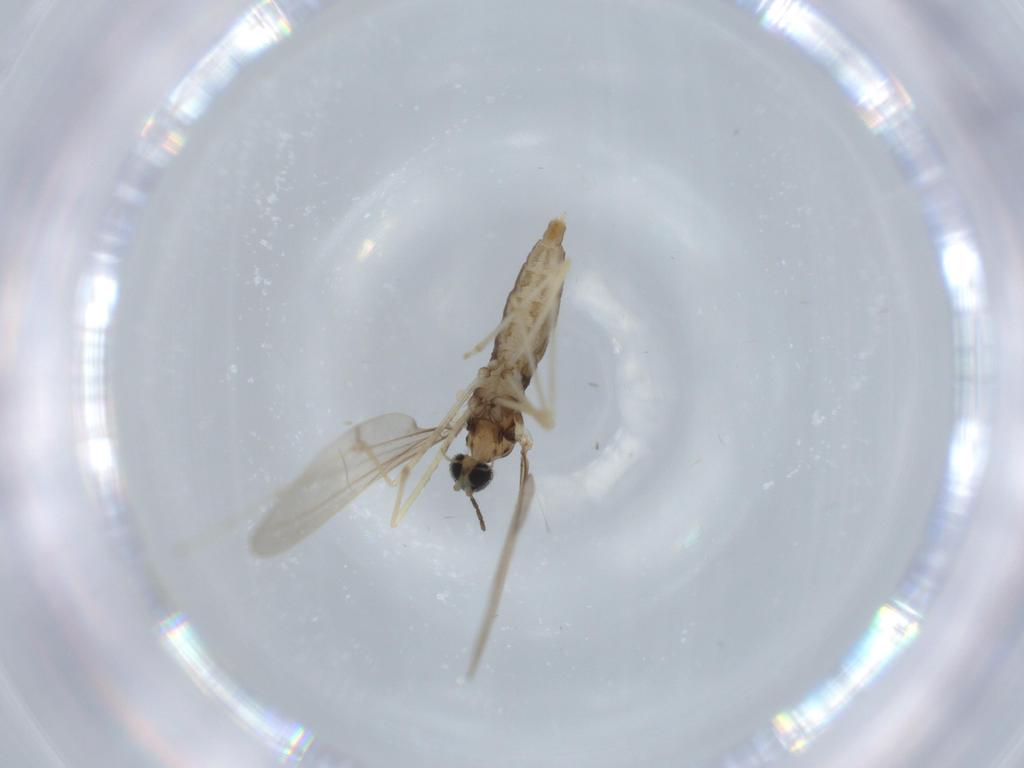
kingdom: Animalia
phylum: Arthropoda
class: Insecta
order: Diptera
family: Cecidomyiidae
